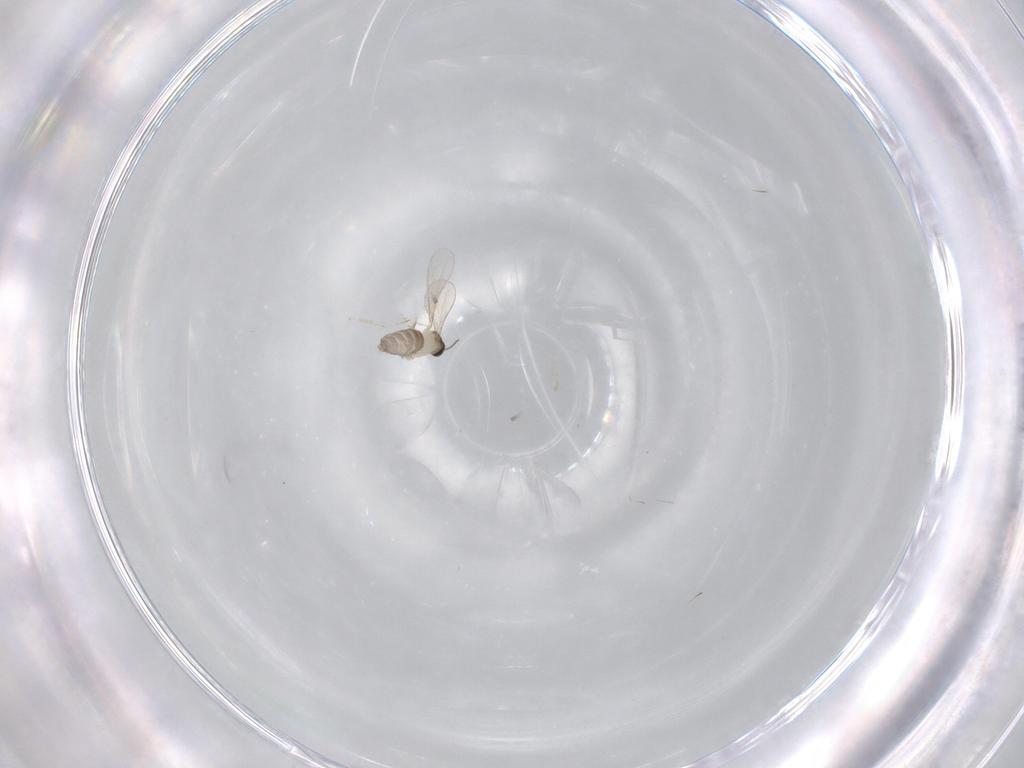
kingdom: Animalia
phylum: Arthropoda
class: Insecta
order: Diptera
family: Cecidomyiidae
